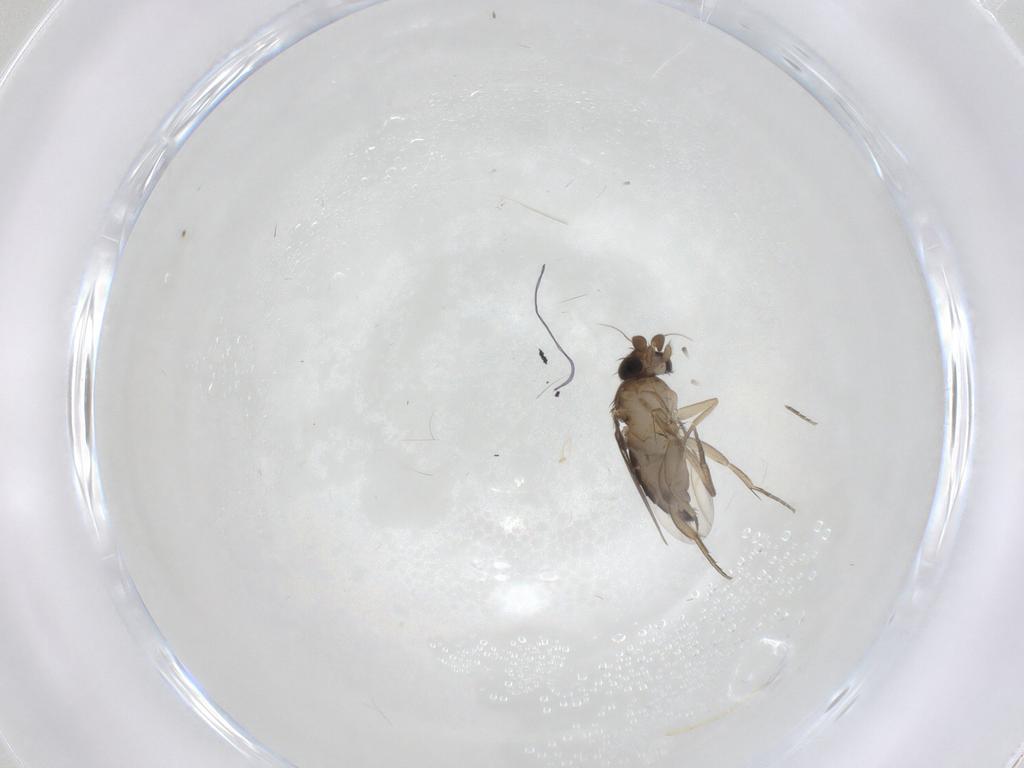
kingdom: Animalia
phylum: Arthropoda
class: Insecta
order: Diptera
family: Phoridae
